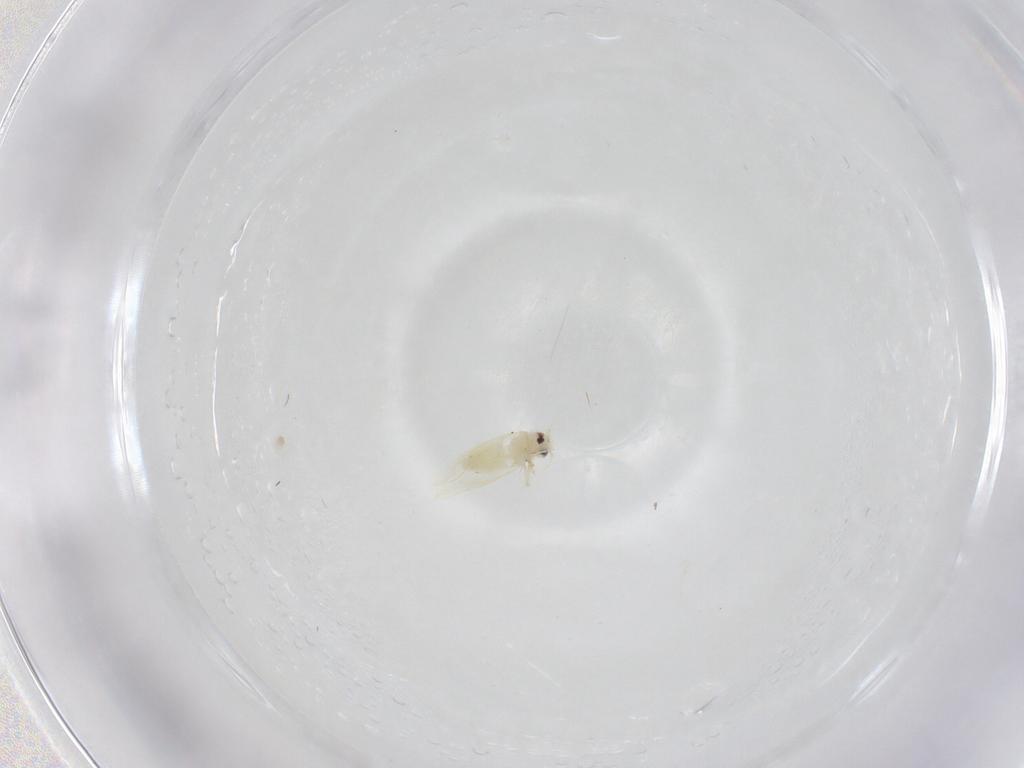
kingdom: Animalia
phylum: Arthropoda
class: Insecta
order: Hemiptera
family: Aleyrodidae
